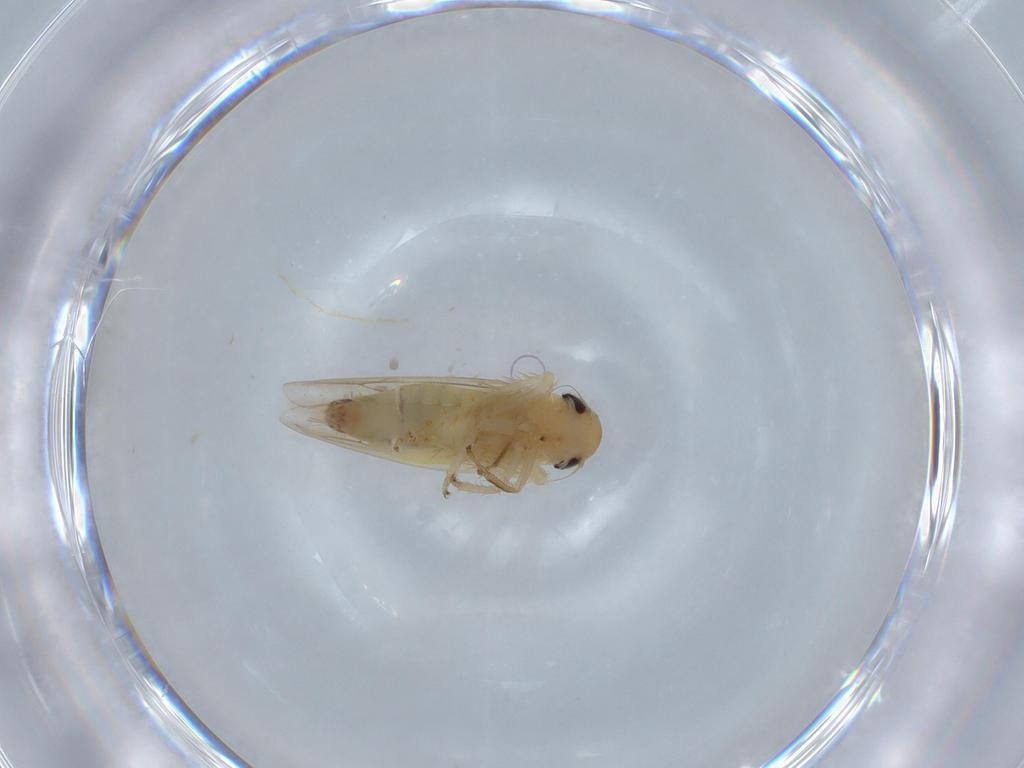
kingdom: Animalia
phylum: Arthropoda
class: Insecta
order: Hemiptera
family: Cicadellidae
